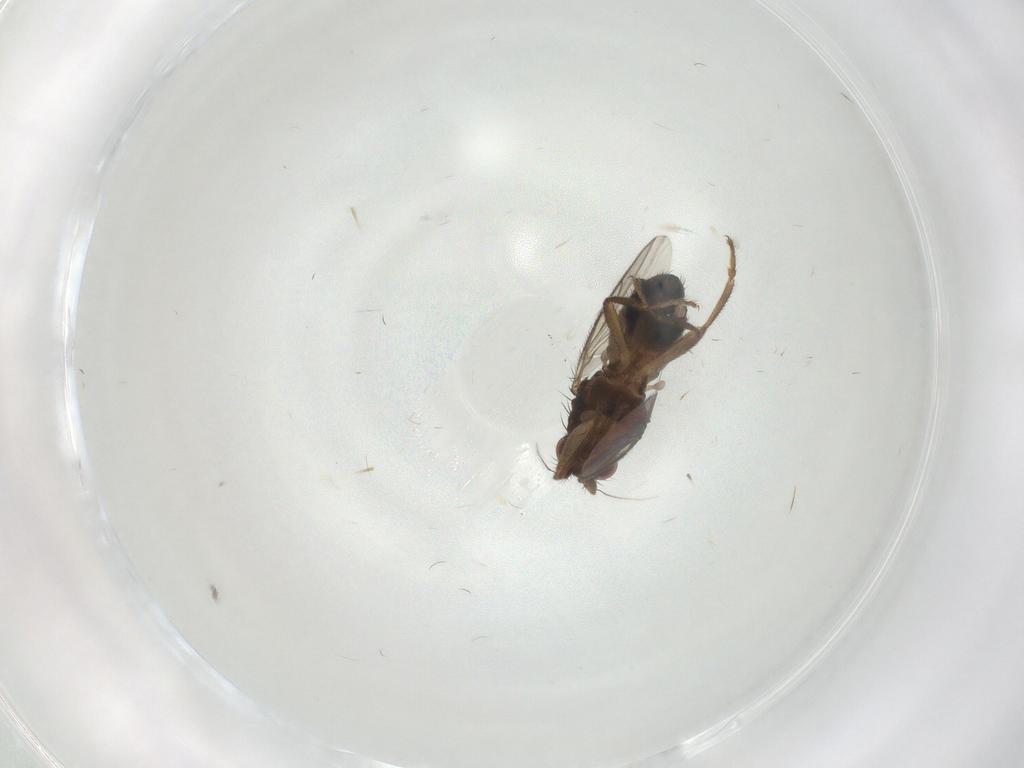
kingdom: Animalia
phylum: Arthropoda
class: Insecta
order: Diptera
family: Sphaeroceridae
